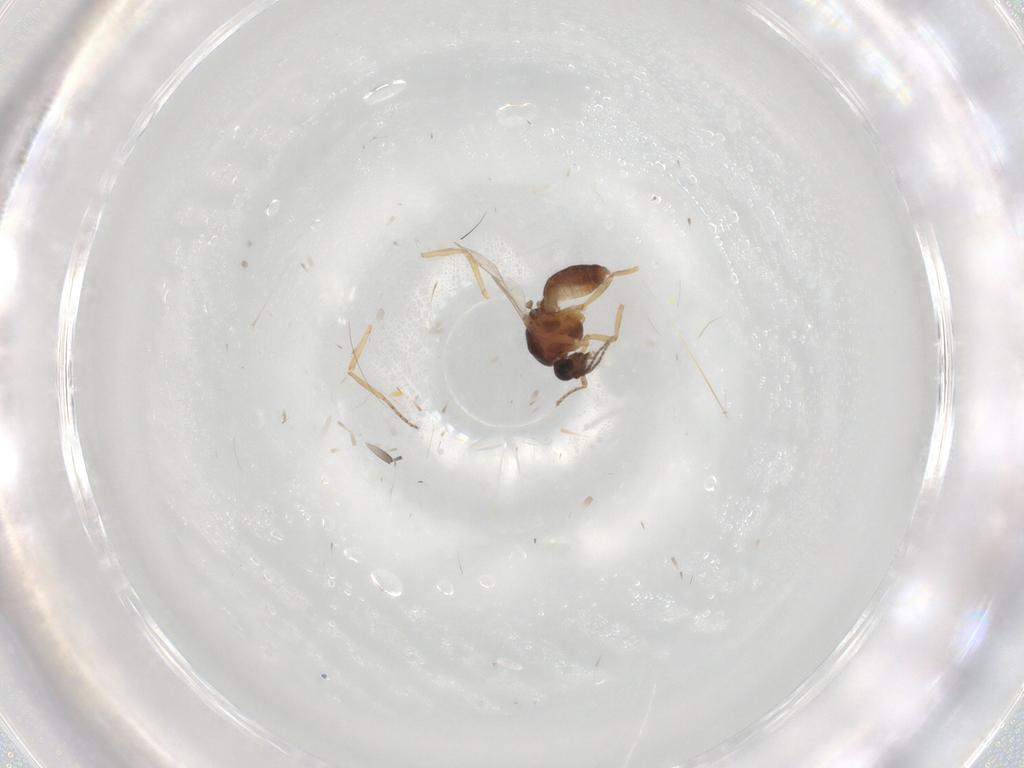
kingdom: Animalia
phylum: Arthropoda
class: Insecta
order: Diptera
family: Ceratopogonidae
